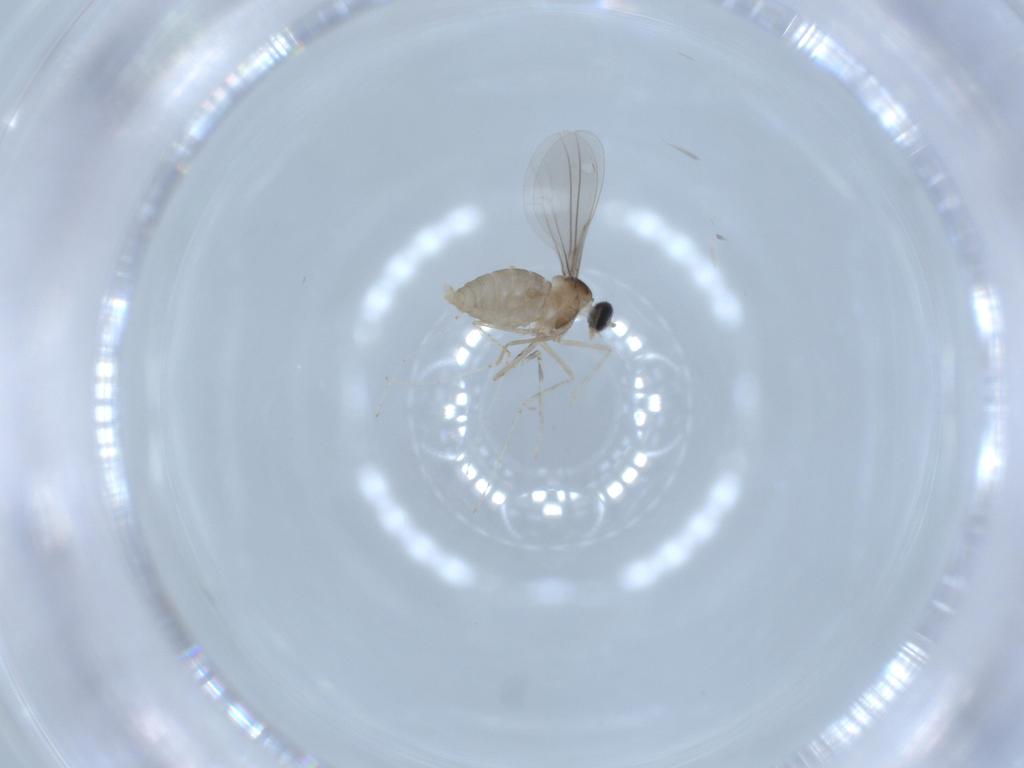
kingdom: Animalia
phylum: Arthropoda
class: Insecta
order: Diptera
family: Cecidomyiidae
